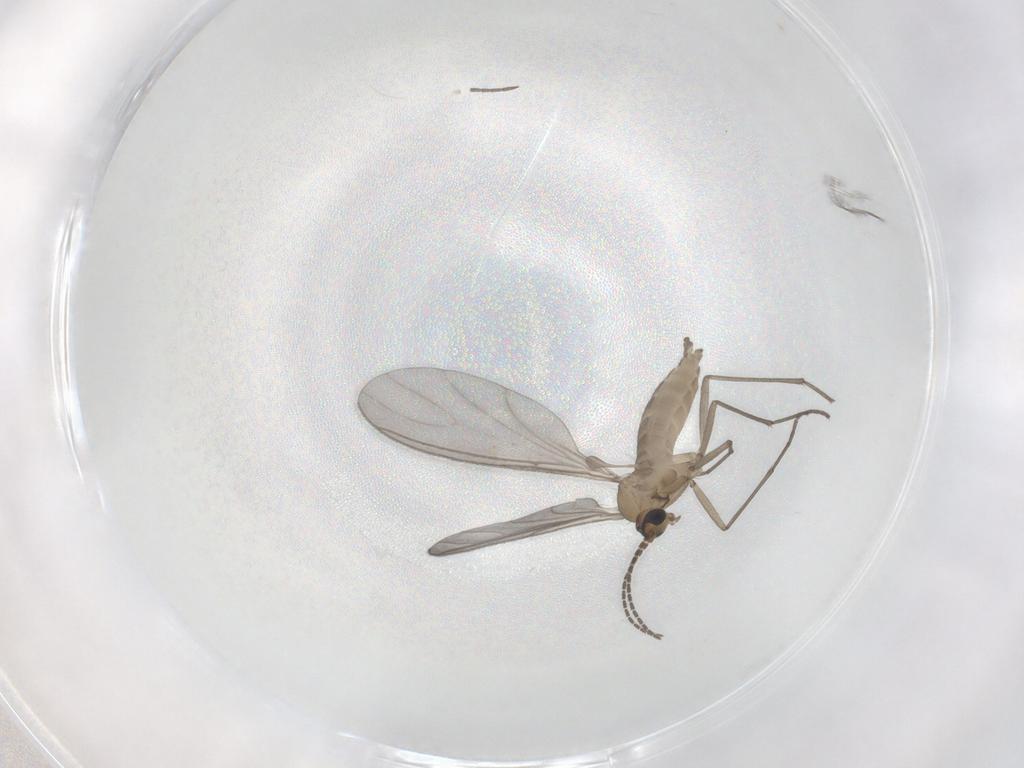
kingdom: Animalia
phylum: Arthropoda
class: Insecta
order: Diptera
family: Sciaridae
